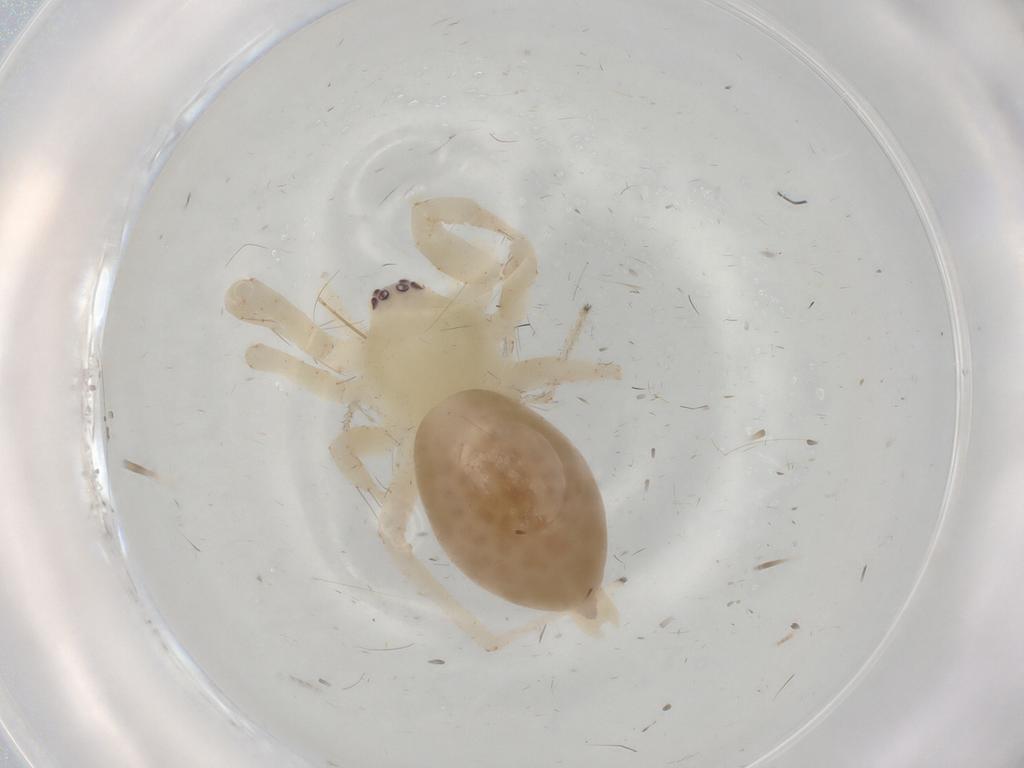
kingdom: Animalia
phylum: Arthropoda
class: Arachnida
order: Araneae
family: Anyphaenidae
